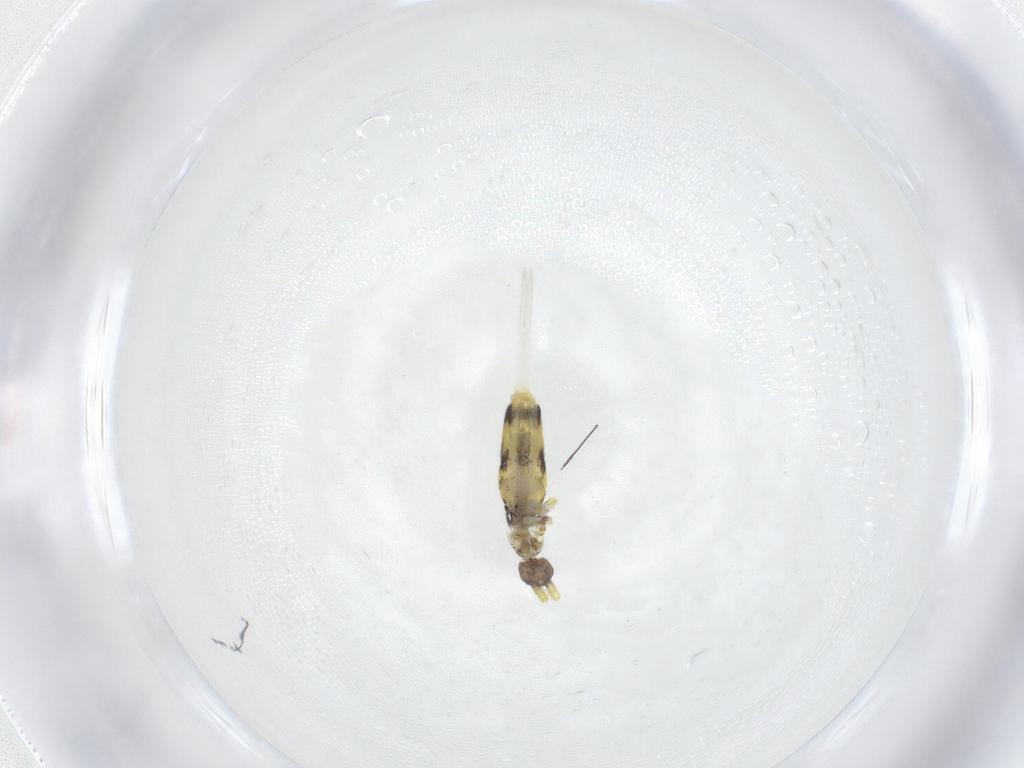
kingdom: Animalia
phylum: Arthropoda
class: Collembola
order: Entomobryomorpha
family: Entomobryidae
